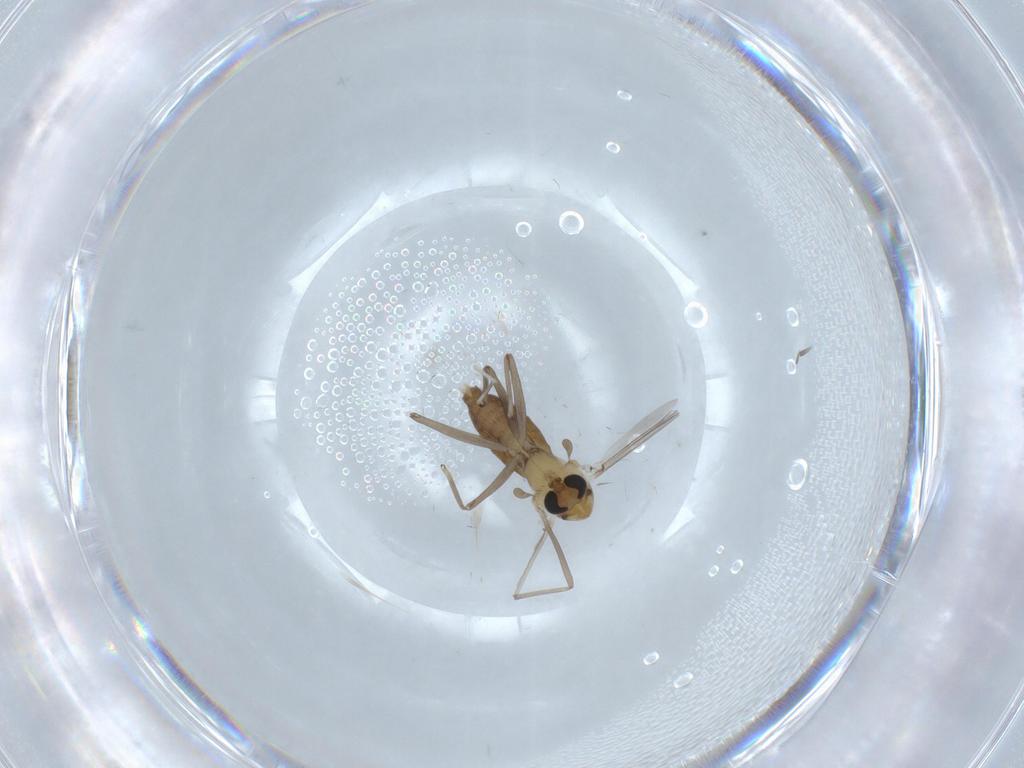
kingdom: Animalia
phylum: Arthropoda
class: Insecta
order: Diptera
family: Chironomidae
